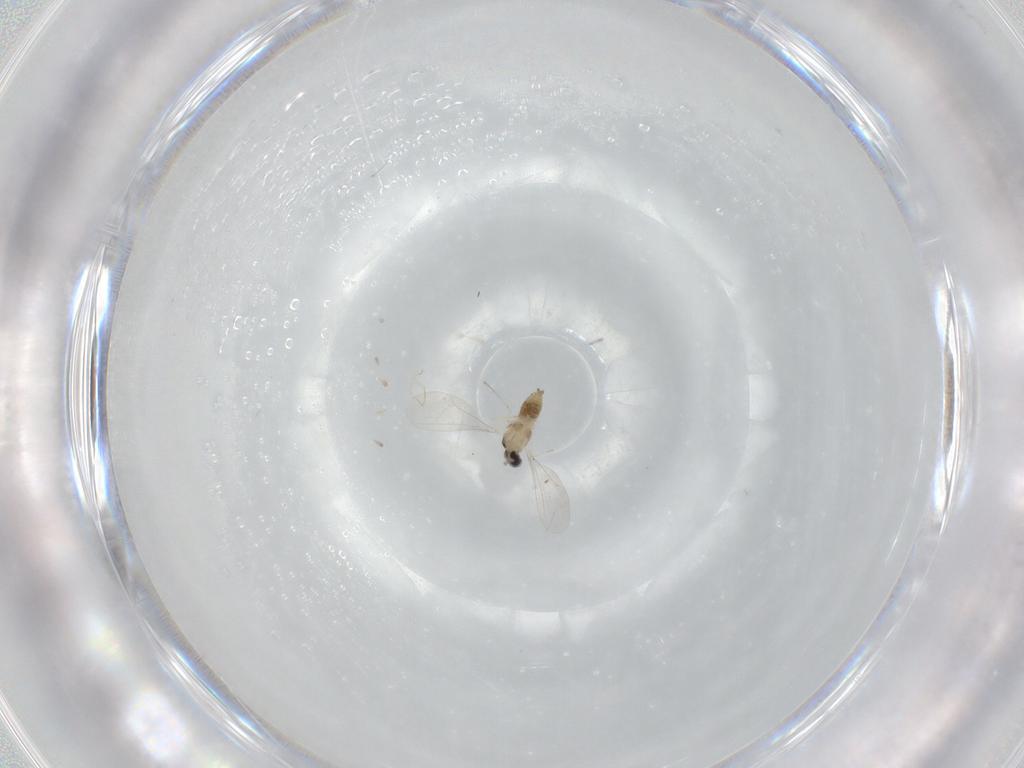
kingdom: Animalia
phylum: Arthropoda
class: Insecta
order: Diptera
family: Cecidomyiidae
